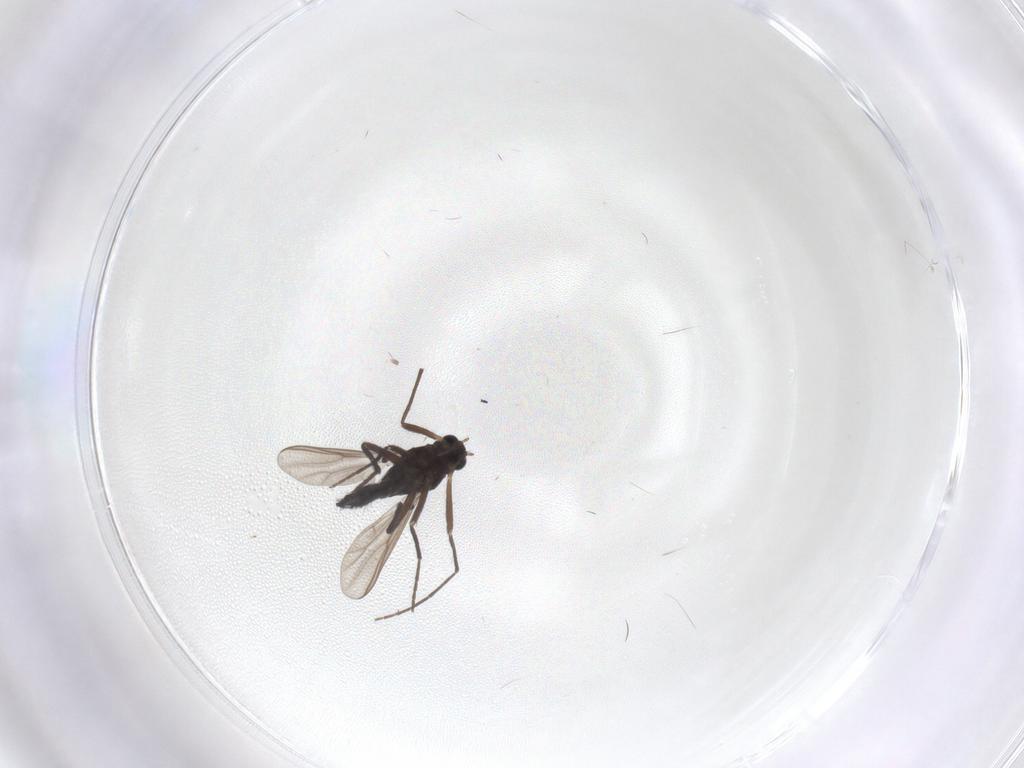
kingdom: Animalia
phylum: Arthropoda
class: Insecta
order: Diptera
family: Chironomidae
